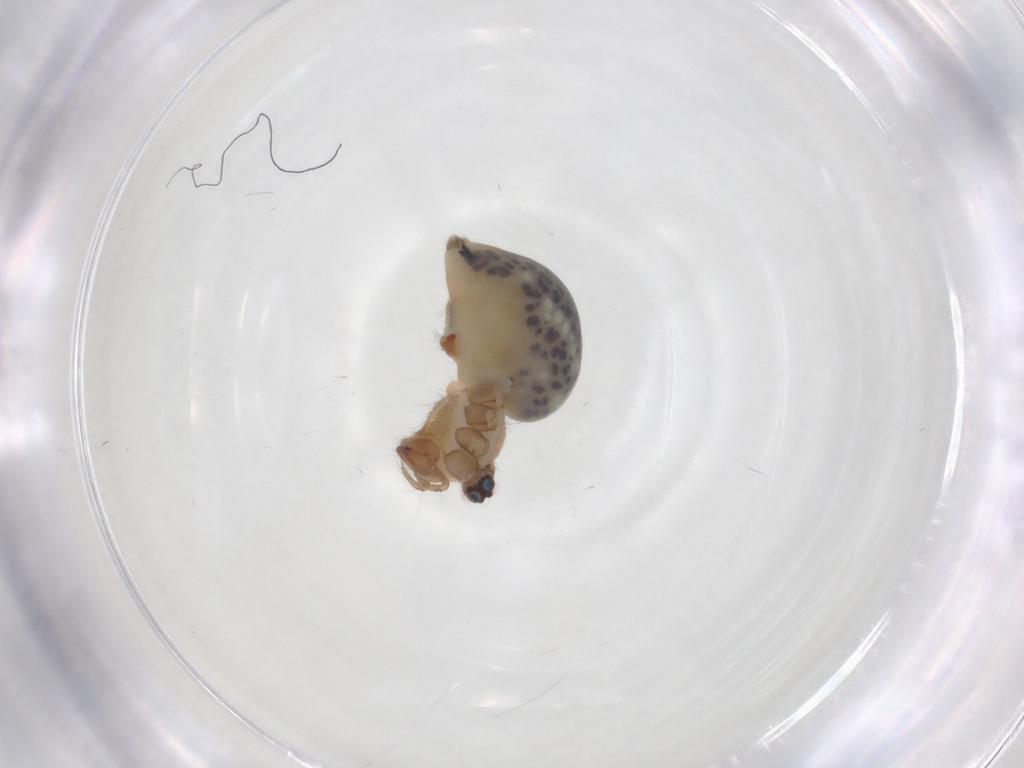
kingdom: Animalia
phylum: Arthropoda
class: Arachnida
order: Araneae
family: Pholcidae
